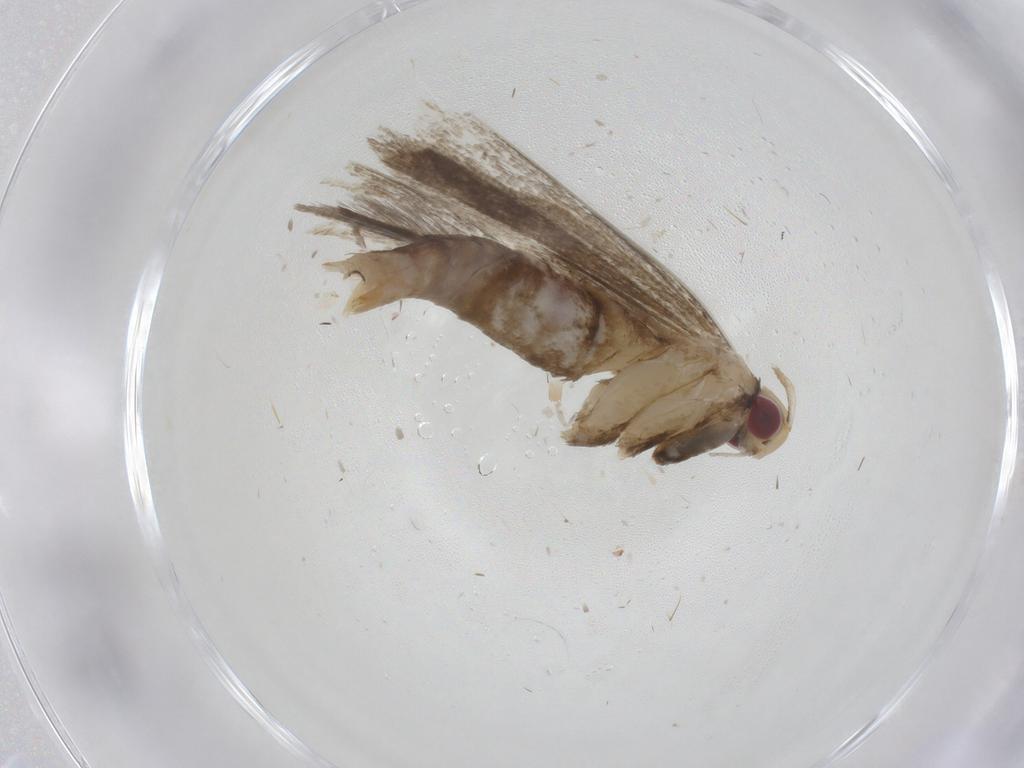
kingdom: Animalia
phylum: Arthropoda
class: Insecta
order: Lepidoptera
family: Gelechiidae
